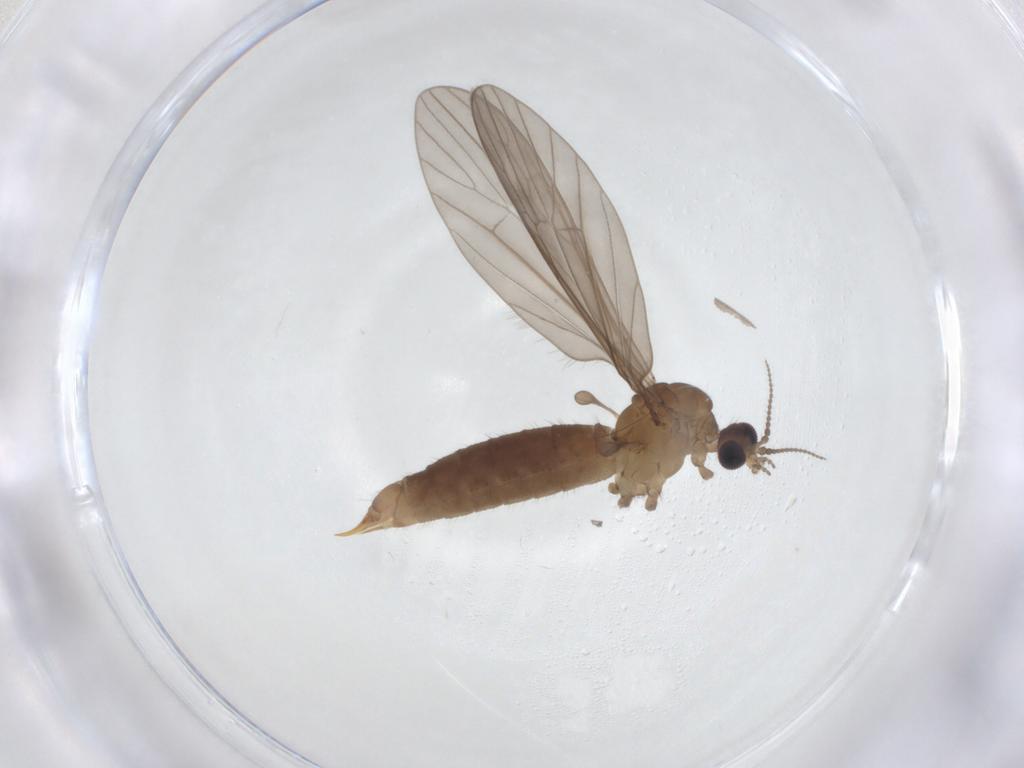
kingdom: Animalia
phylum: Arthropoda
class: Insecta
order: Diptera
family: Limoniidae
